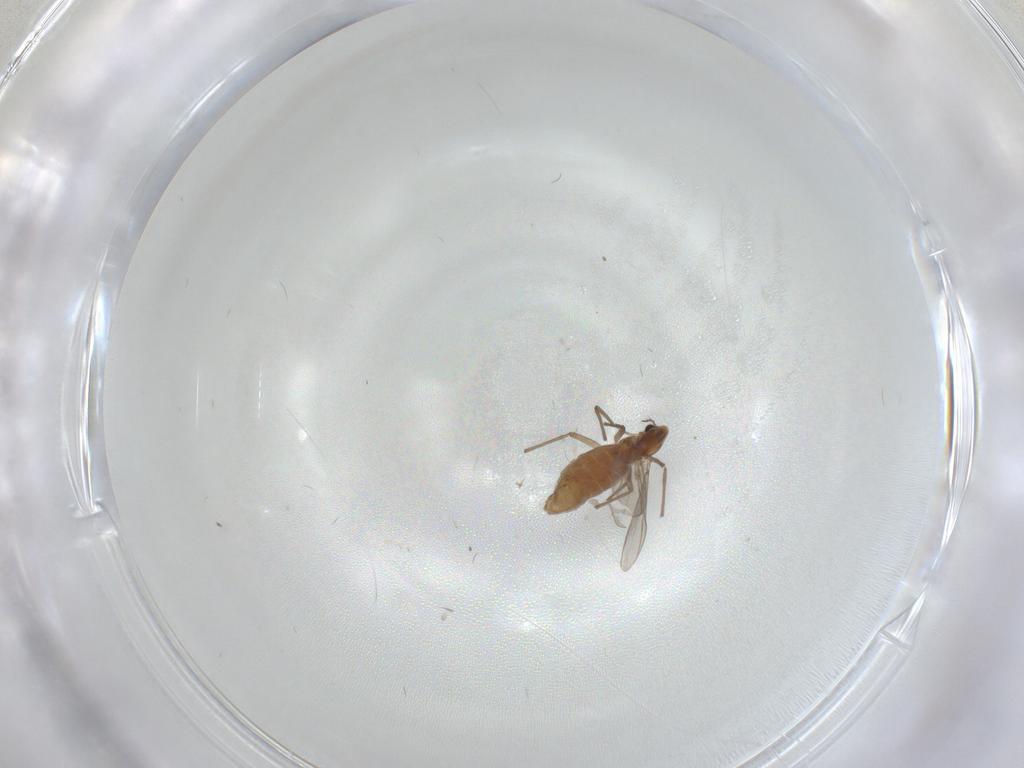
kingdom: Animalia
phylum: Arthropoda
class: Insecta
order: Diptera
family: Chironomidae
